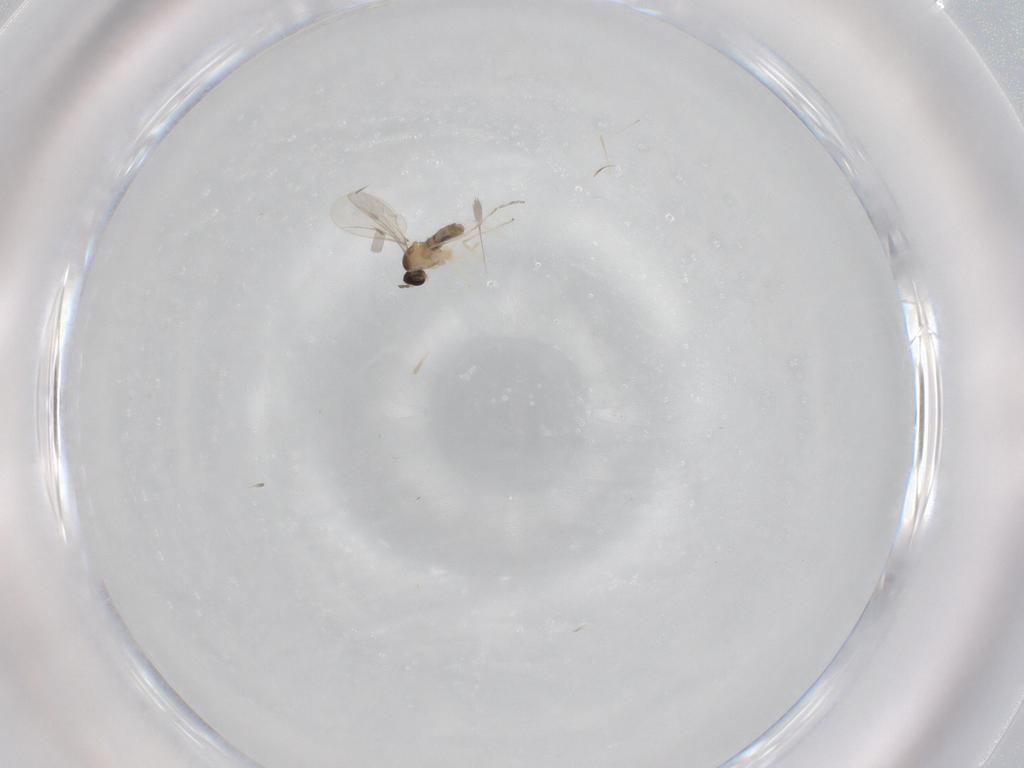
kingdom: Animalia
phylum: Arthropoda
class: Insecta
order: Diptera
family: Cecidomyiidae
